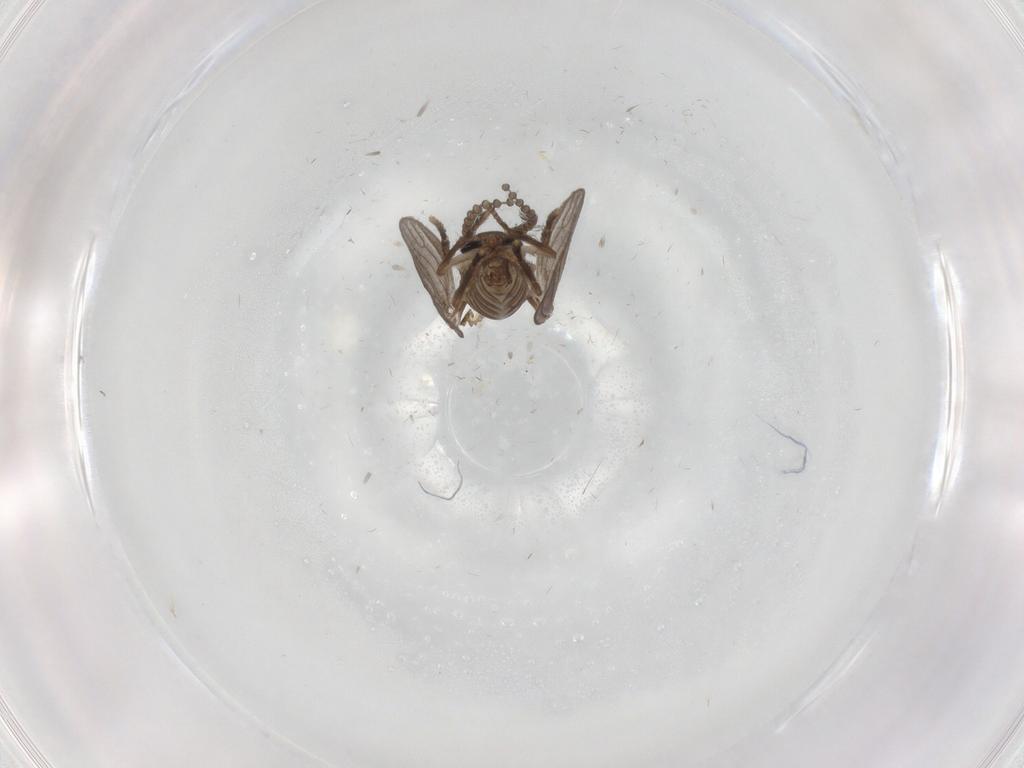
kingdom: Animalia
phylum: Arthropoda
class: Insecta
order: Diptera
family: Psychodidae
